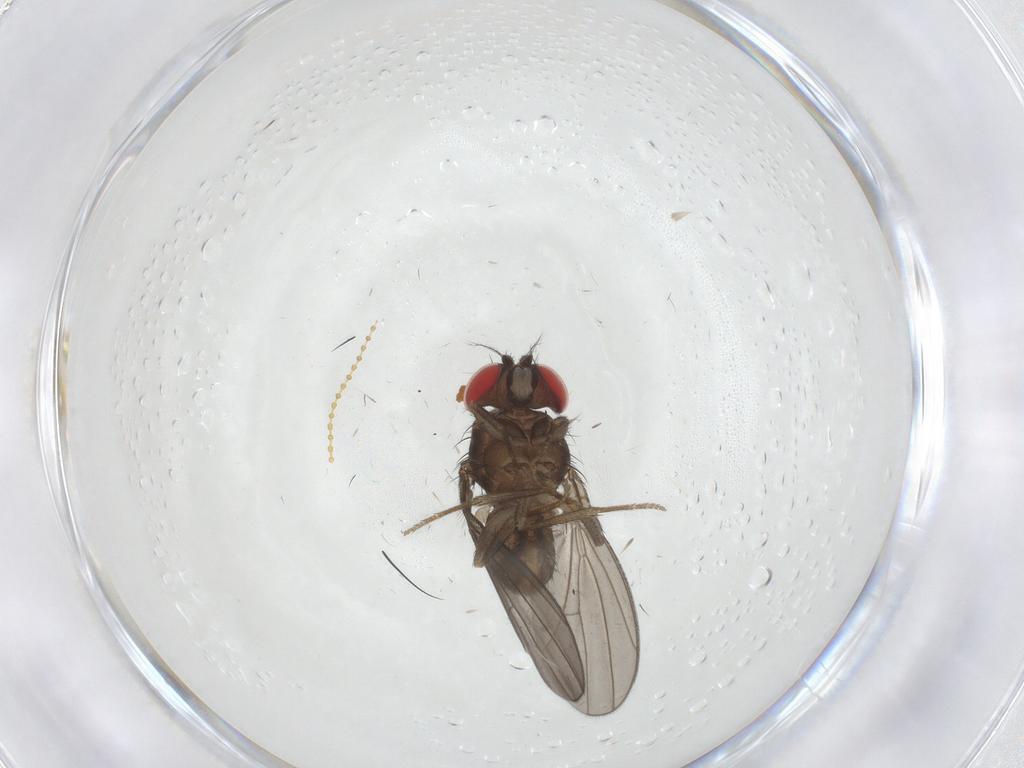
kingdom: Animalia
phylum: Arthropoda
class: Insecta
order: Diptera
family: Drosophilidae
